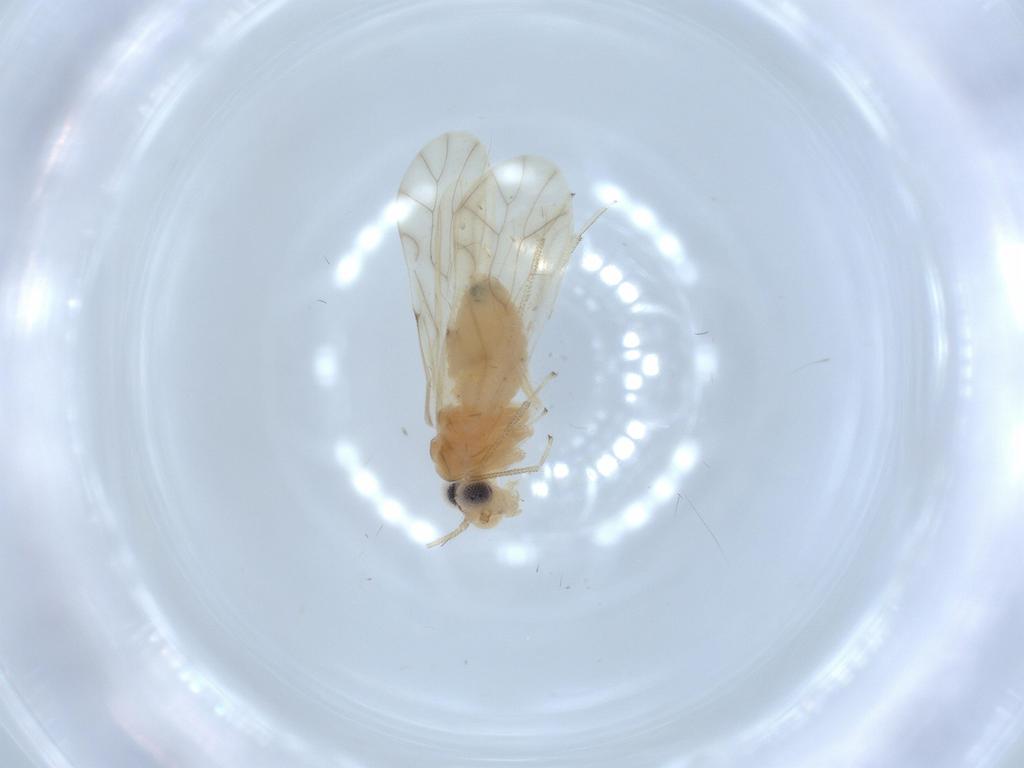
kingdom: Animalia
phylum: Arthropoda
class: Insecta
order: Psocodea
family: Caeciliusidae
